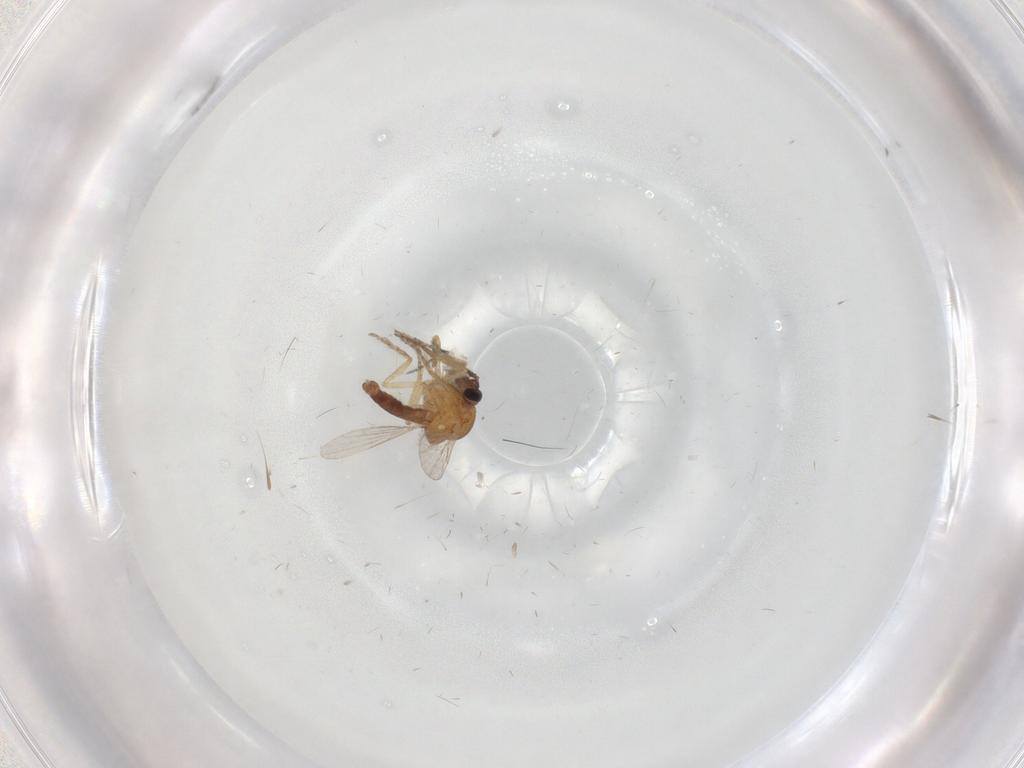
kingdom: Animalia
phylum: Arthropoda
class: Insecta
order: Diptera
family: Ceratopogonidae
